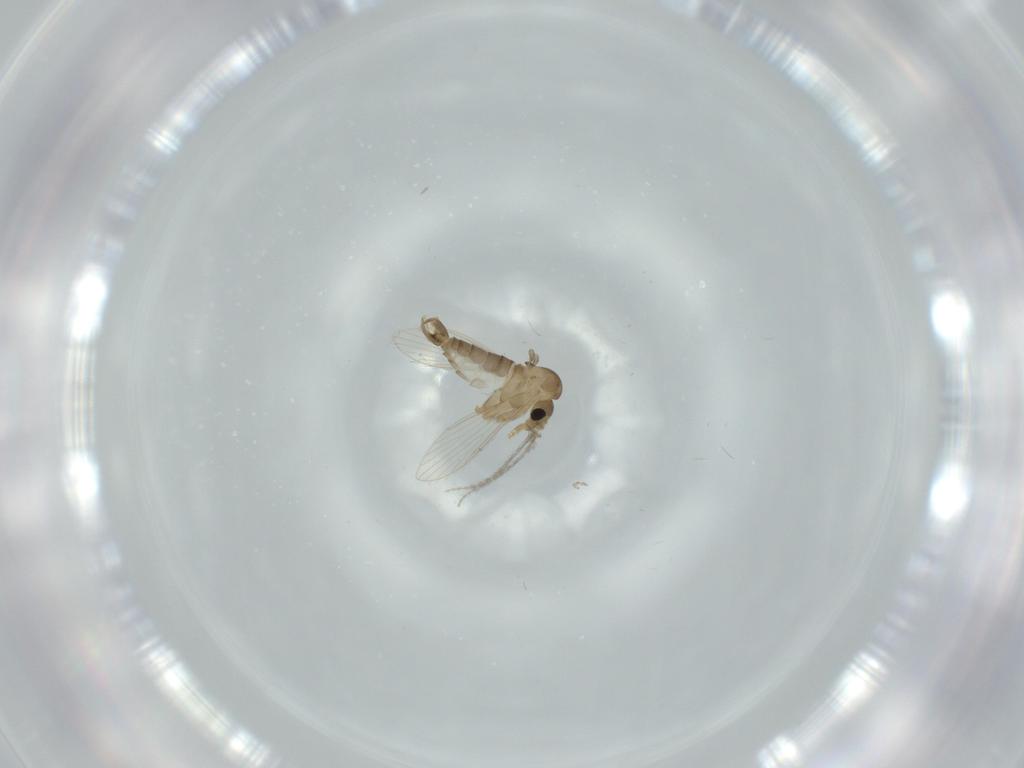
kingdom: Animalia
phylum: Arthropoda
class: Insecta
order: Diptera
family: Psychodidae
